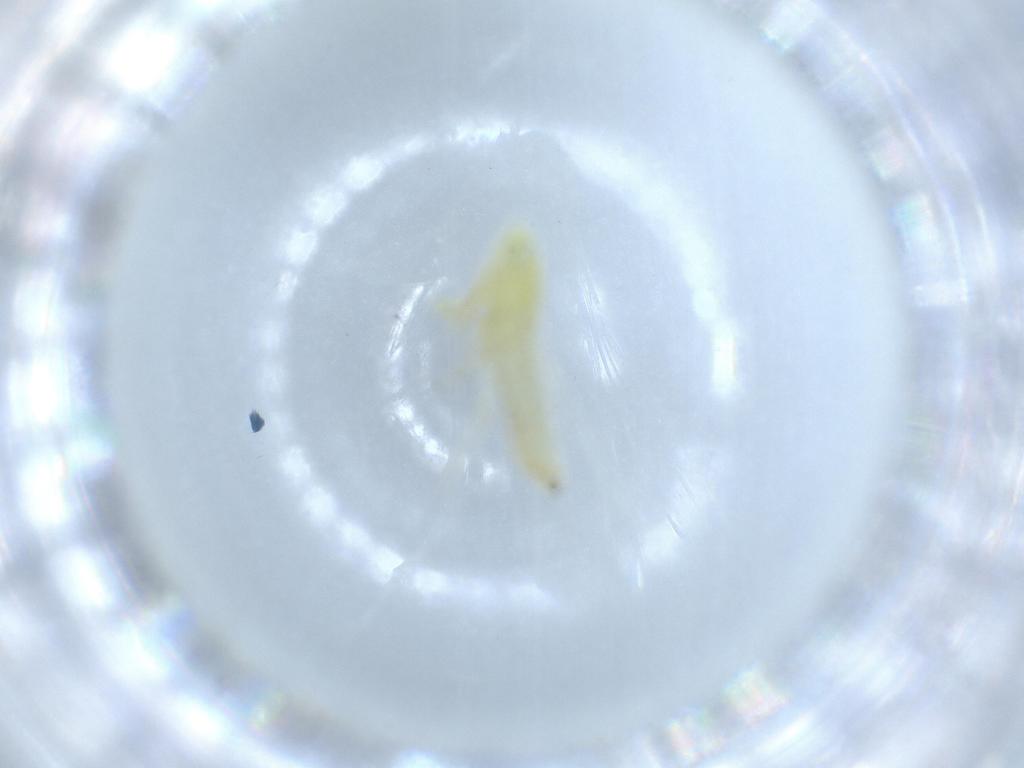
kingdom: Animalia
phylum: Arthropoda
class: Insecta
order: Hemiptera
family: Cicadellidae
